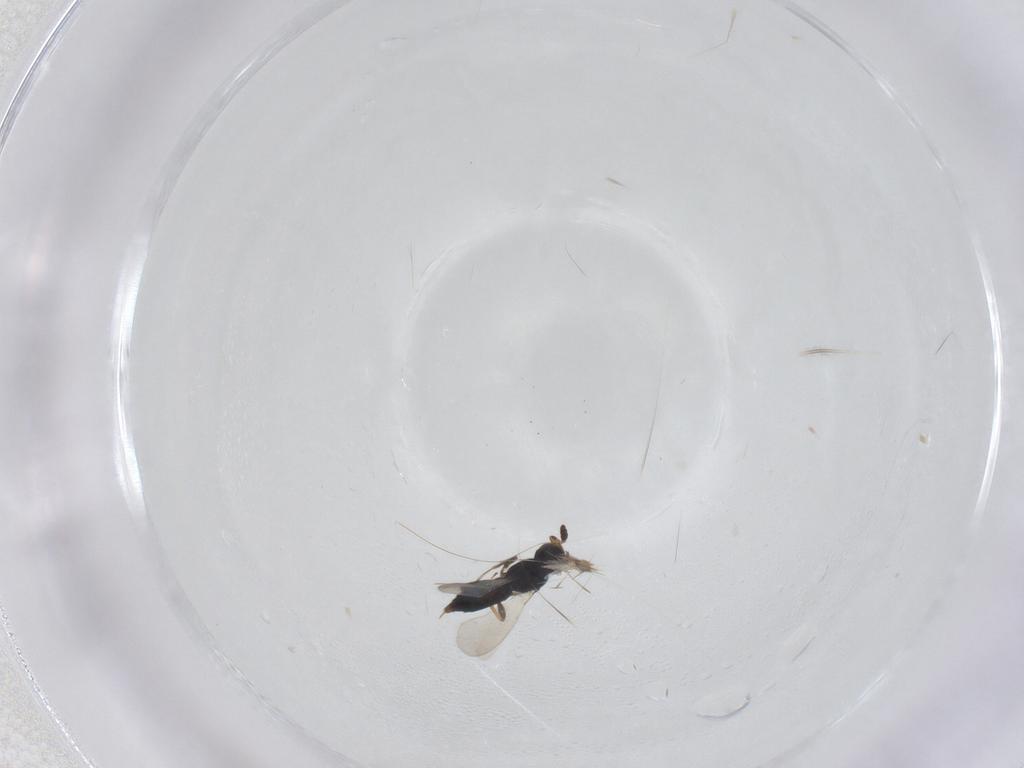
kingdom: Animalia
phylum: Arthropoda
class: Insecta
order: Hymenoptera
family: Platygastridae
